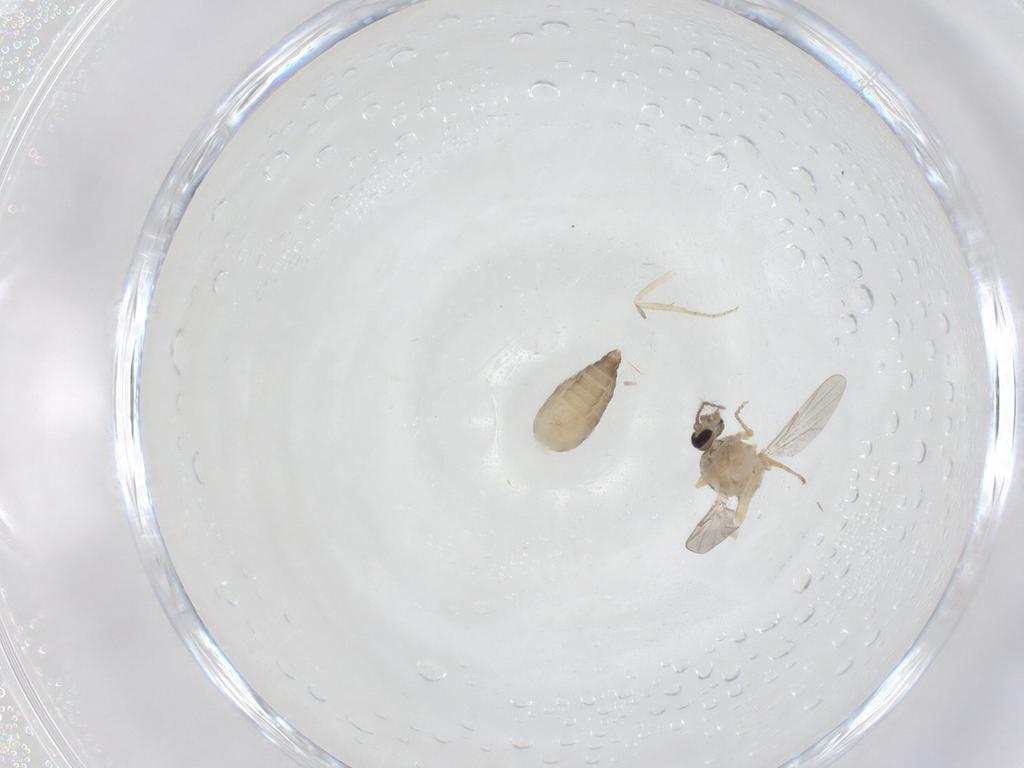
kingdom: Animalia
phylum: Arthropoda
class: Insecta
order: Diptera
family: Ceratopogonidae
